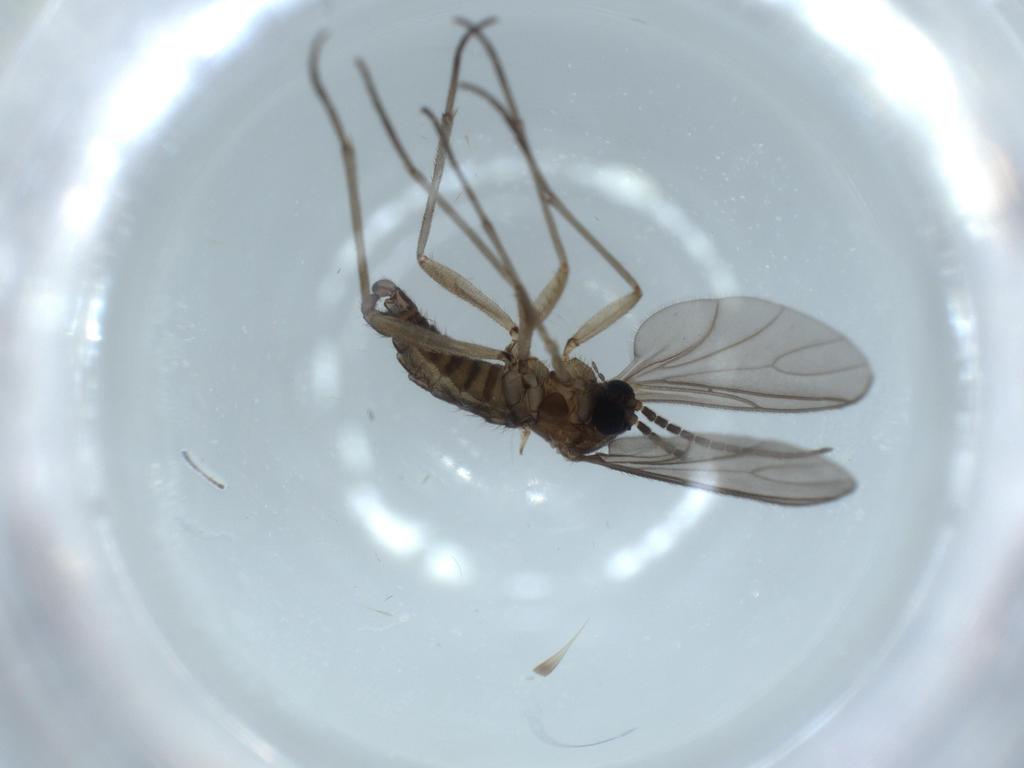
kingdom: Animalia
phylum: Arthropoda
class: Insecta
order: Diptera
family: Sciaridae
